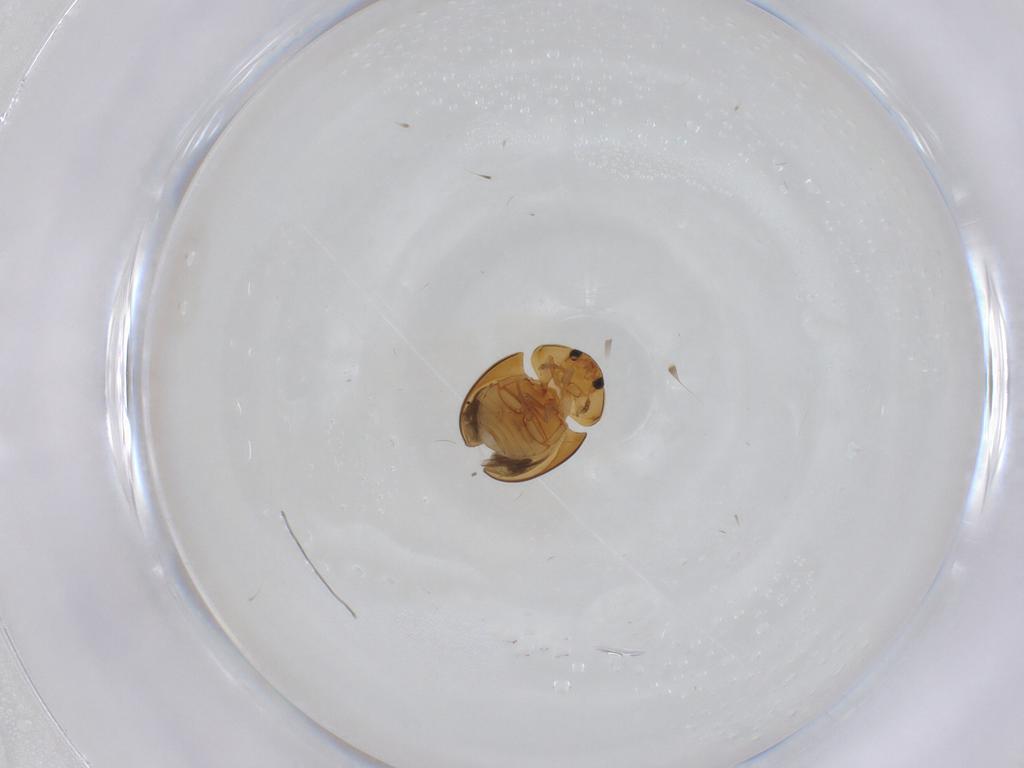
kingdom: Animalia
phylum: Arthropoda
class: Insecta
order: Coleoptera
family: Phalacridae
